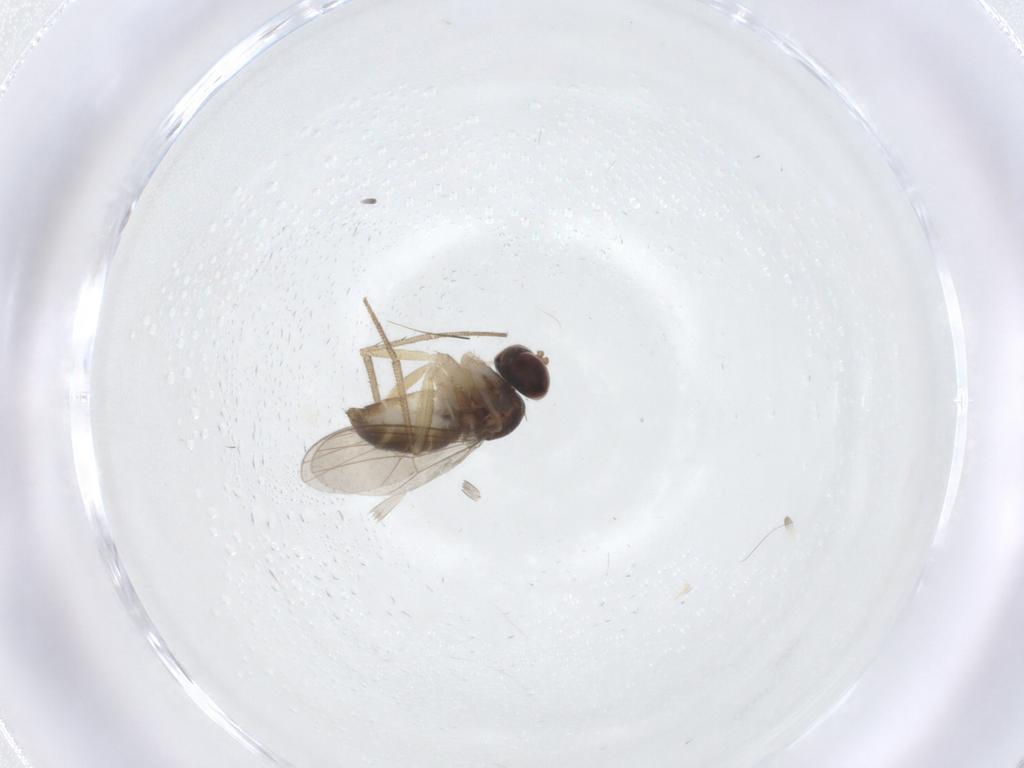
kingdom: Animalia
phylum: Arthropoda
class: Insecta
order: Diptera
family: Dolichopodidae
